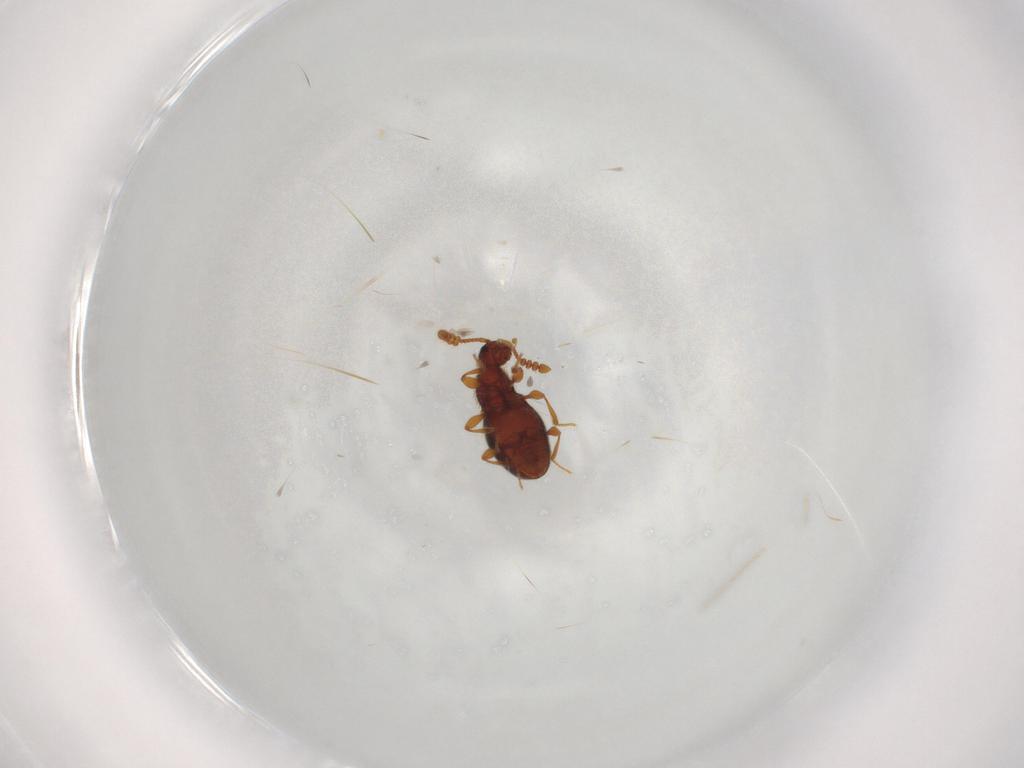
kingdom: Animalia
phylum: Arthropoda
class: Insecta
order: Coleoptera
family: Staphylinidae
